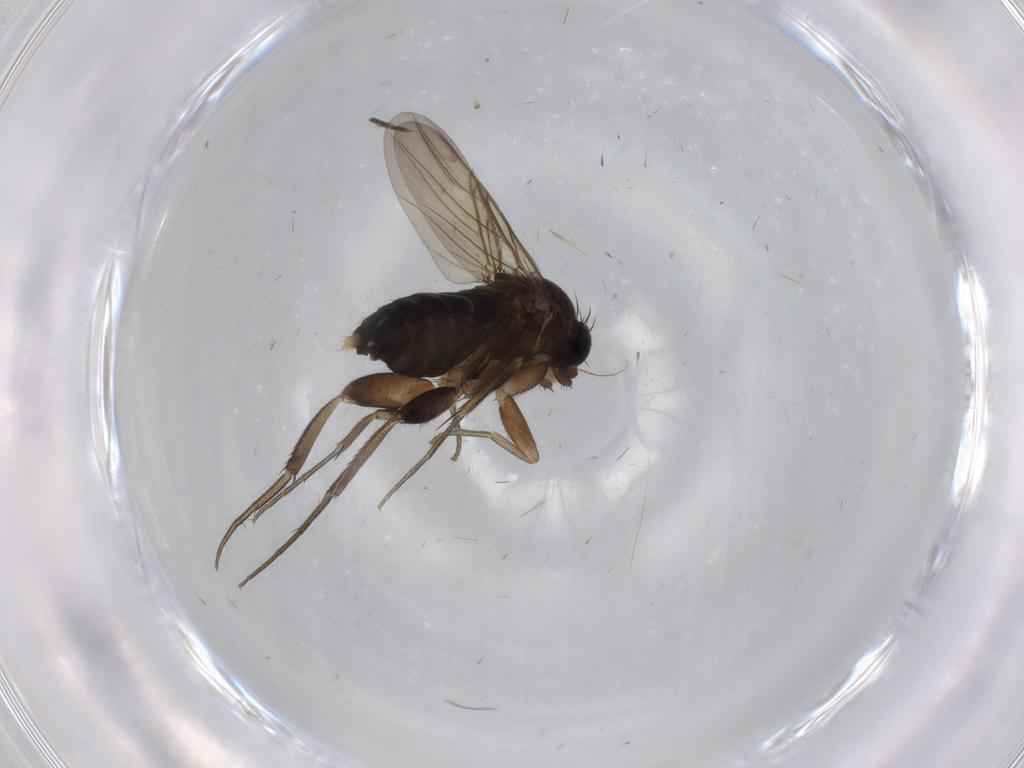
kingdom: Animalia
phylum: Arthropoda
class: Insecta
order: Diptera
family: Phoridae
